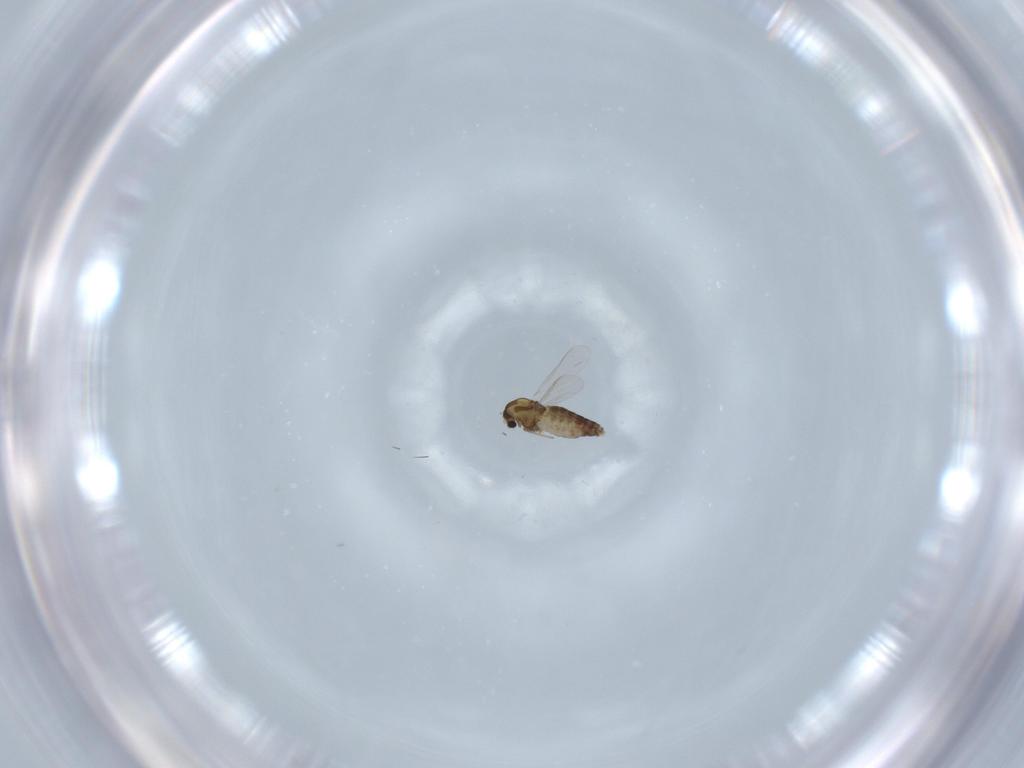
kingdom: Animalia
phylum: Arthropoda
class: Insecta
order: Diptera
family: Chironomidae
